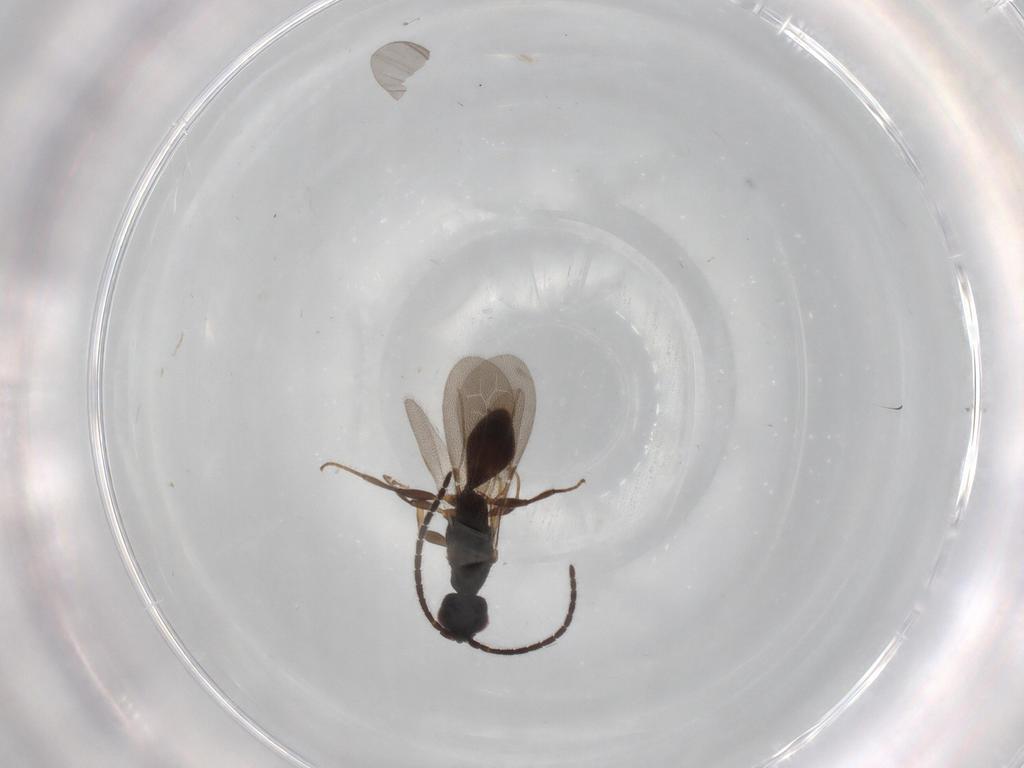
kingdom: Animalia
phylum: Arthropoda
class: Insecta
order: Hymenoptera
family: Bethylidae
